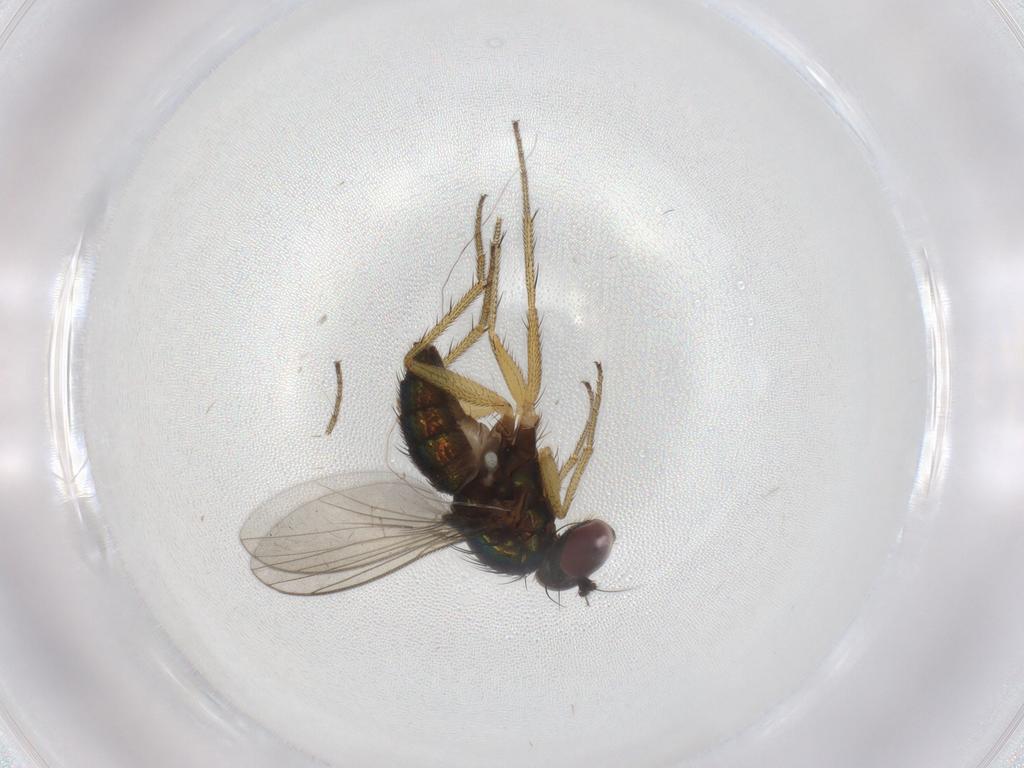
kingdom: Animalia
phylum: Arthropoda
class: Insecta
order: Diptera
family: Dolichopodidae
